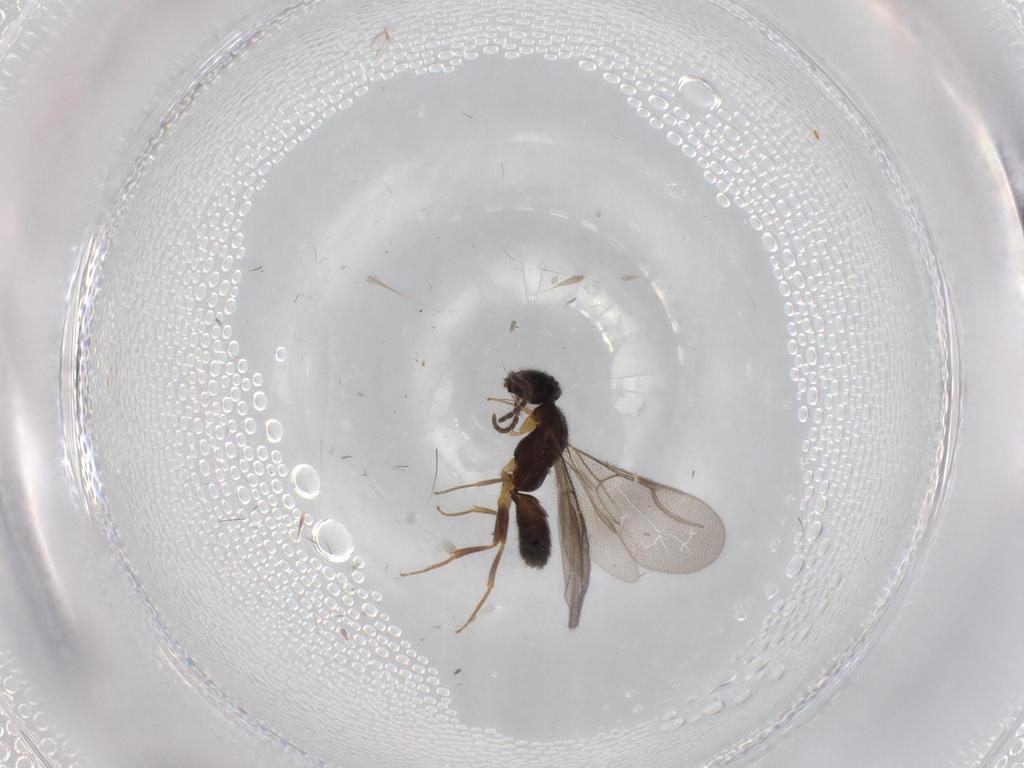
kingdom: Animalia
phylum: Arthropoda
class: Insecta
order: Hymenoptera
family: Bethylidae
